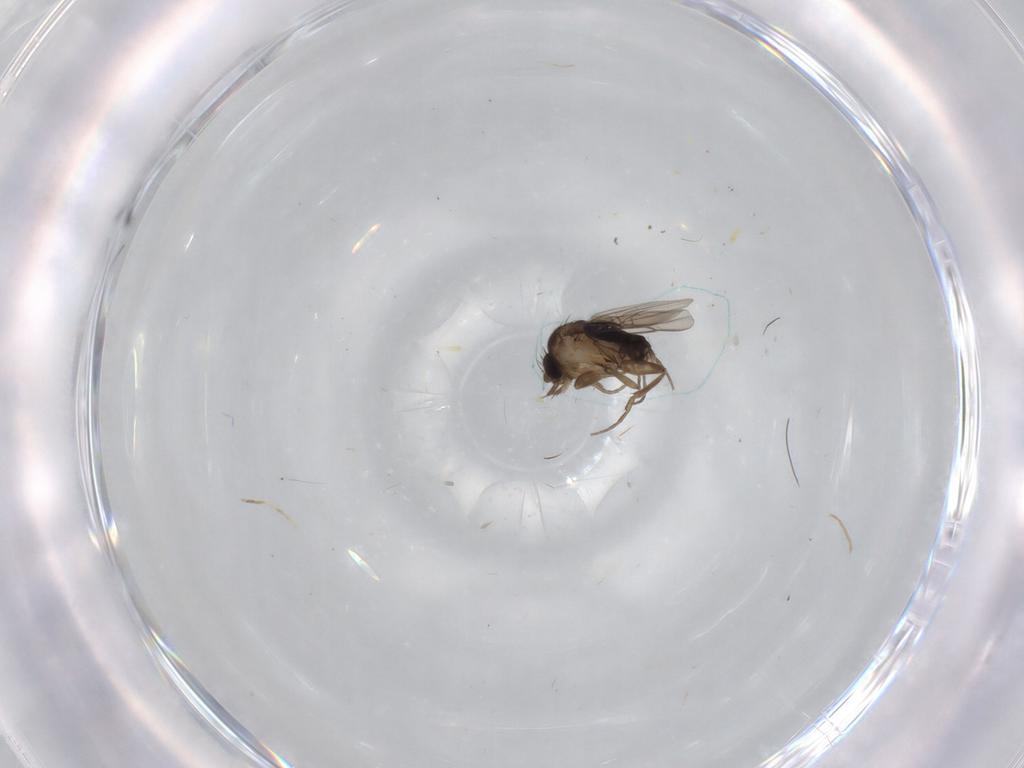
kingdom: Animalia
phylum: Arthropoda
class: Insecta
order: Diptera
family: Phoridae
